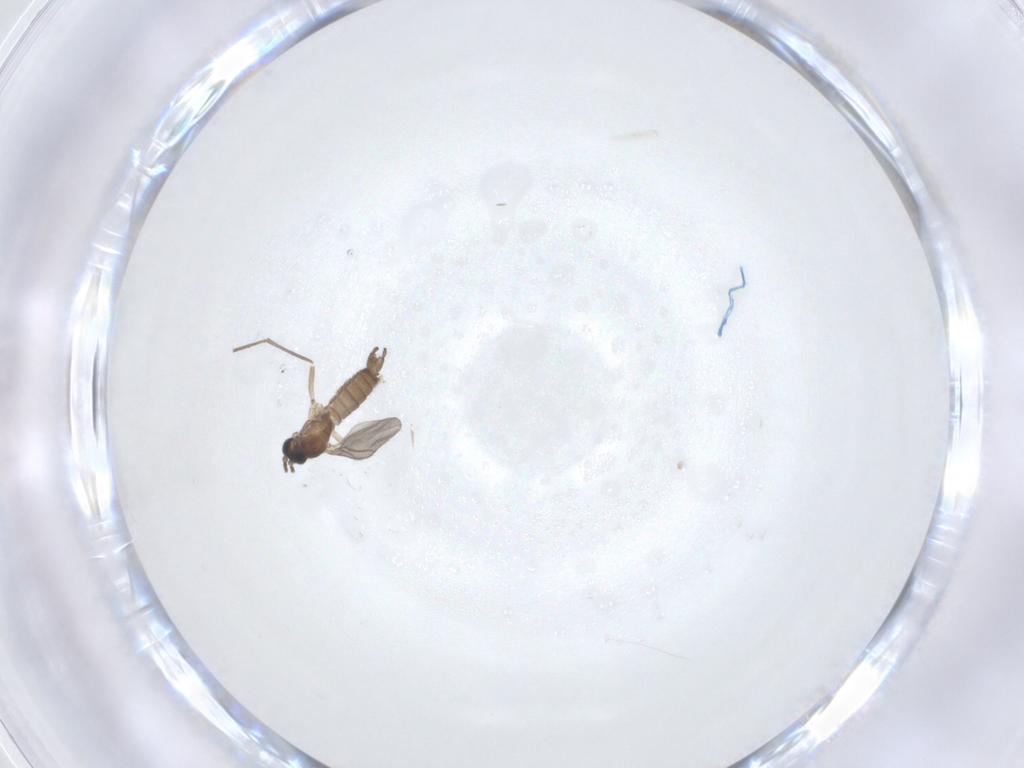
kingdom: Animalia
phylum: Arthropoda
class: Insecta
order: Diptera
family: Sciaridae
